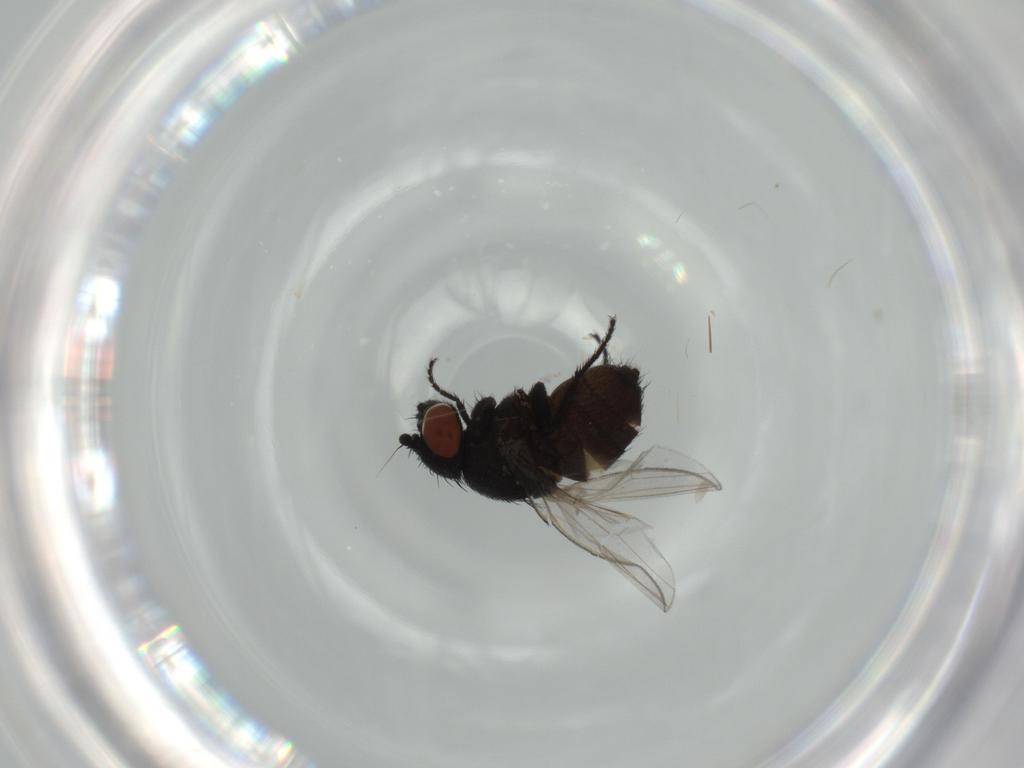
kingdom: Animalia
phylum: Arthropoda
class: Insecta
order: Diptera
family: Milichiidae
